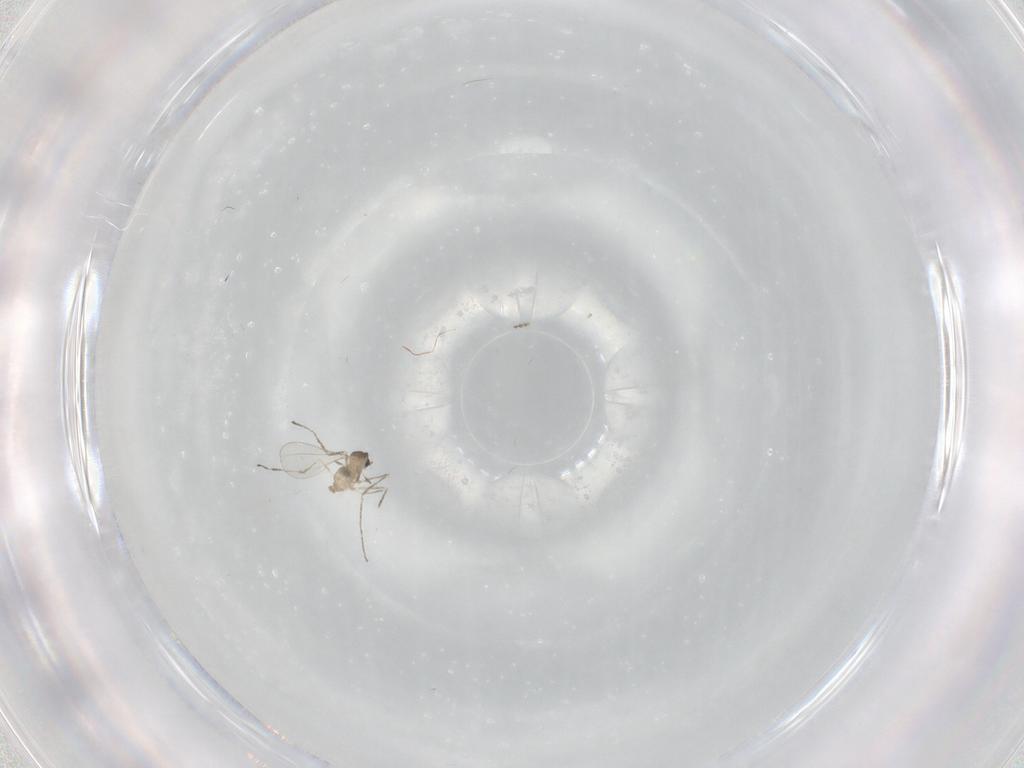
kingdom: Animalia
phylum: Arthropoda
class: Insecta
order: Diptera
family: Cecidomyiidae
